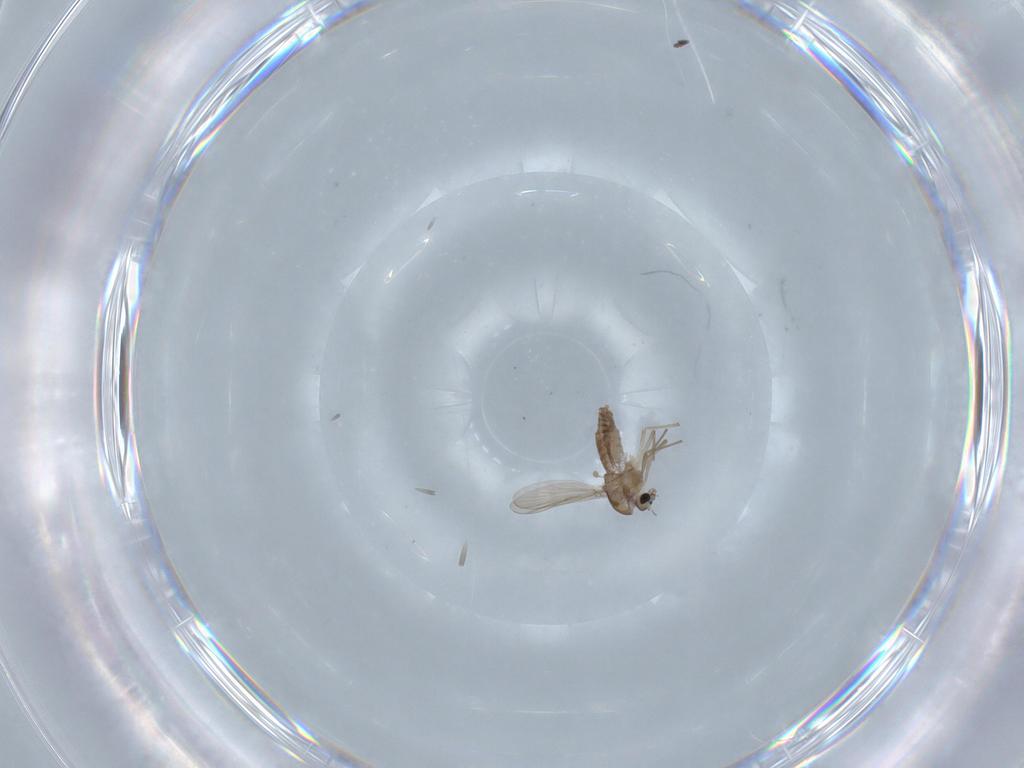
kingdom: Animalia
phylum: Arthropoda
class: Insecta
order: Diptera
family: Chironomidae
